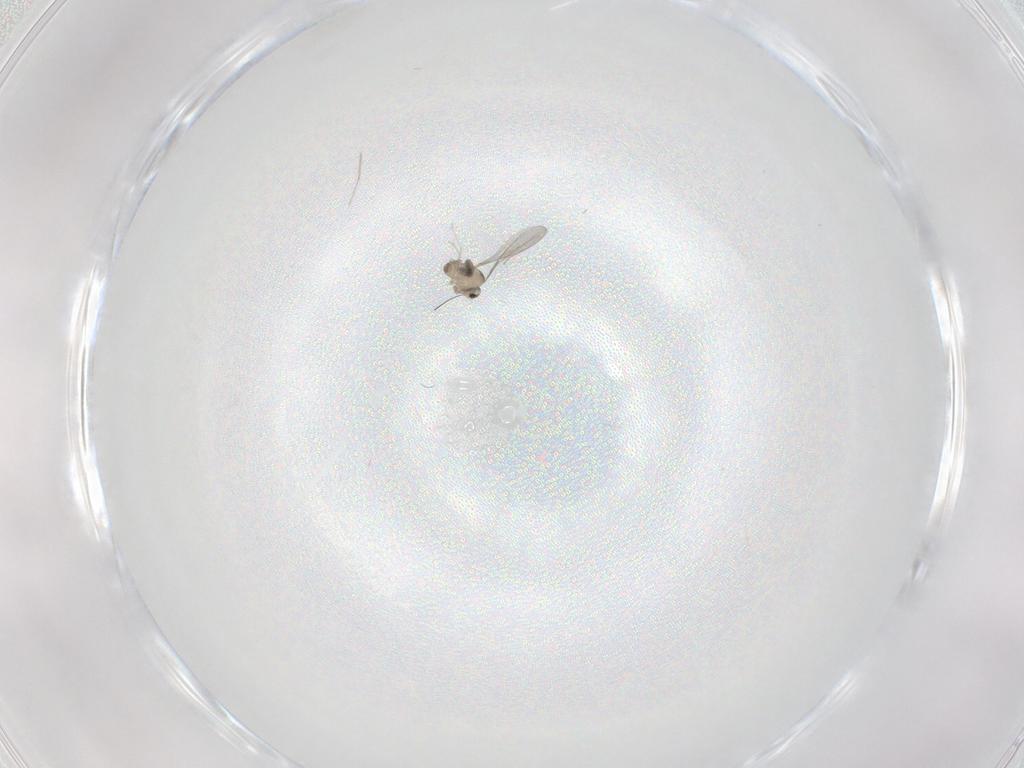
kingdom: Animalia
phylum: Arthropoda
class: Insecta
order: Diptera
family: Cecidomyiidae
